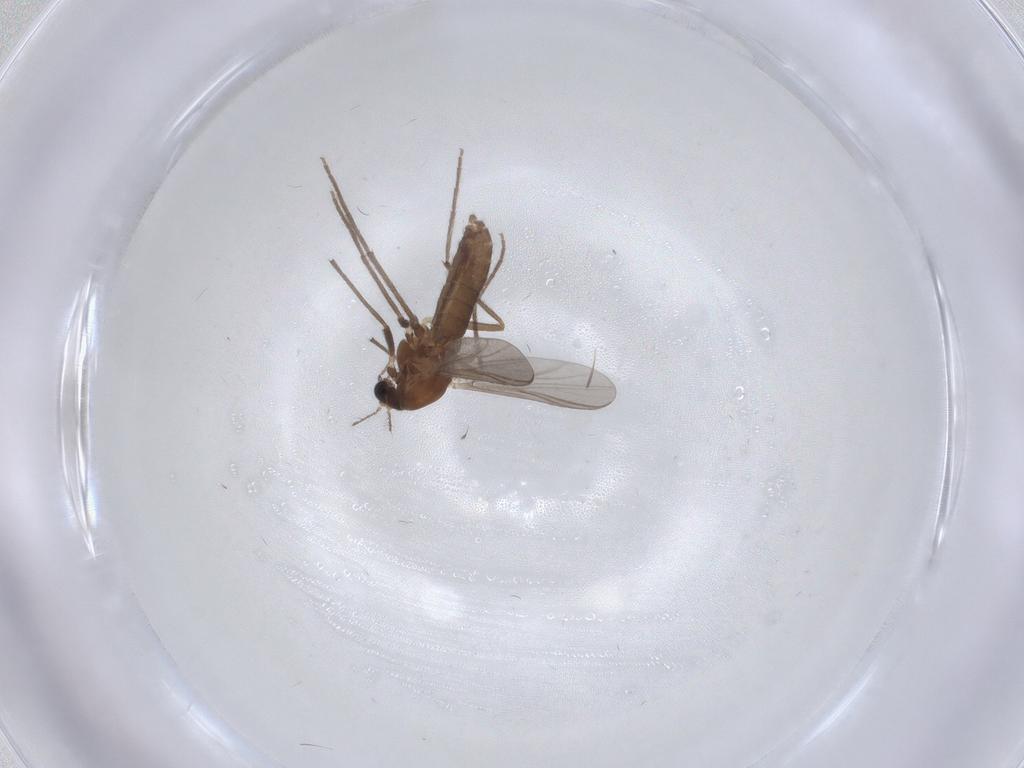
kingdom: Animalia
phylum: Arthropoda
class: Insecta
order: Diptera
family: Chironomidae
